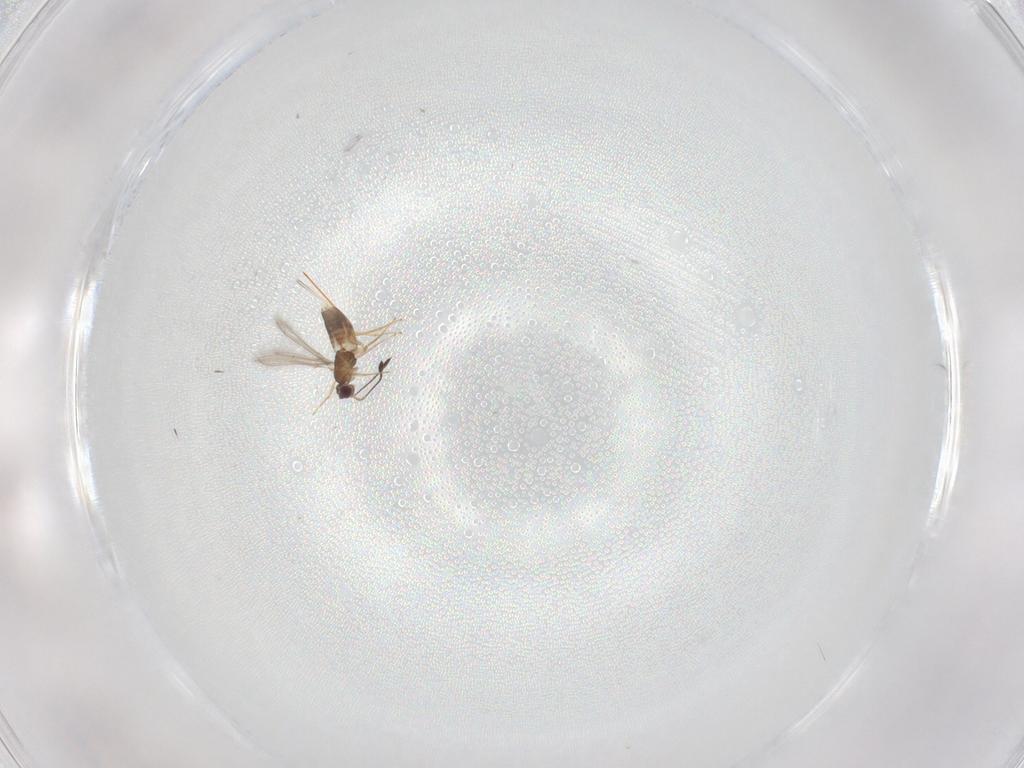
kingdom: Animalia
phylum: Arthropoda
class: Insecta
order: Hymenoptera
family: Mymaridae
